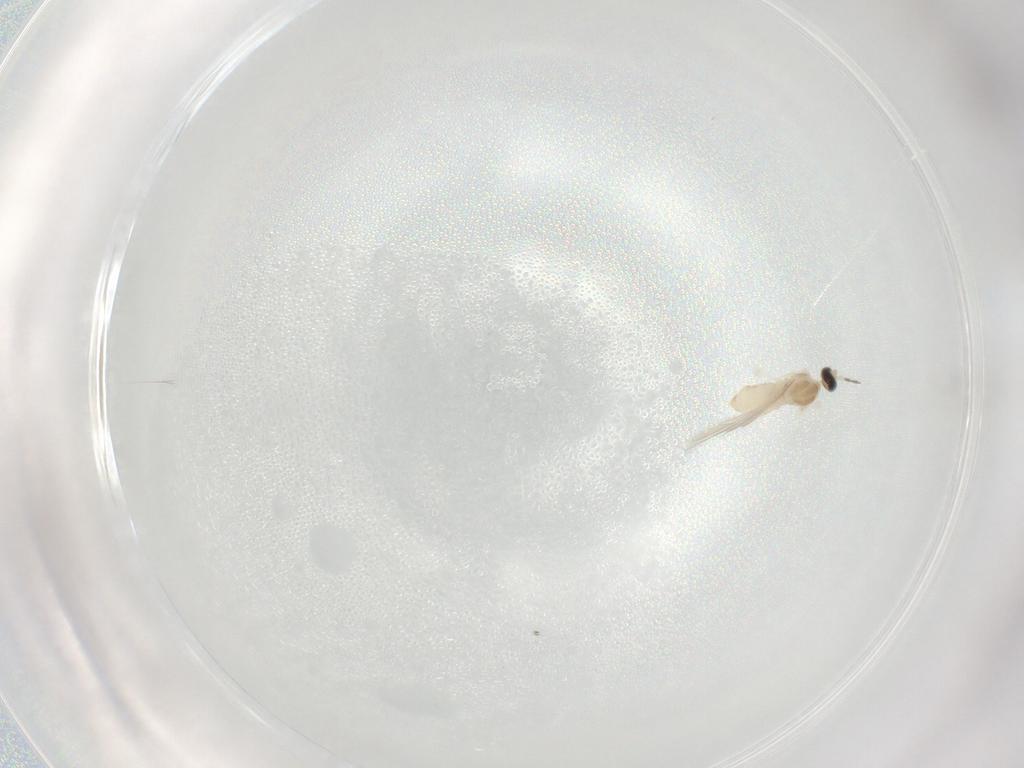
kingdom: Animalia
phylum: Arthropoda
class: Insecta
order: Diptera
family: Cecidomyiidae
